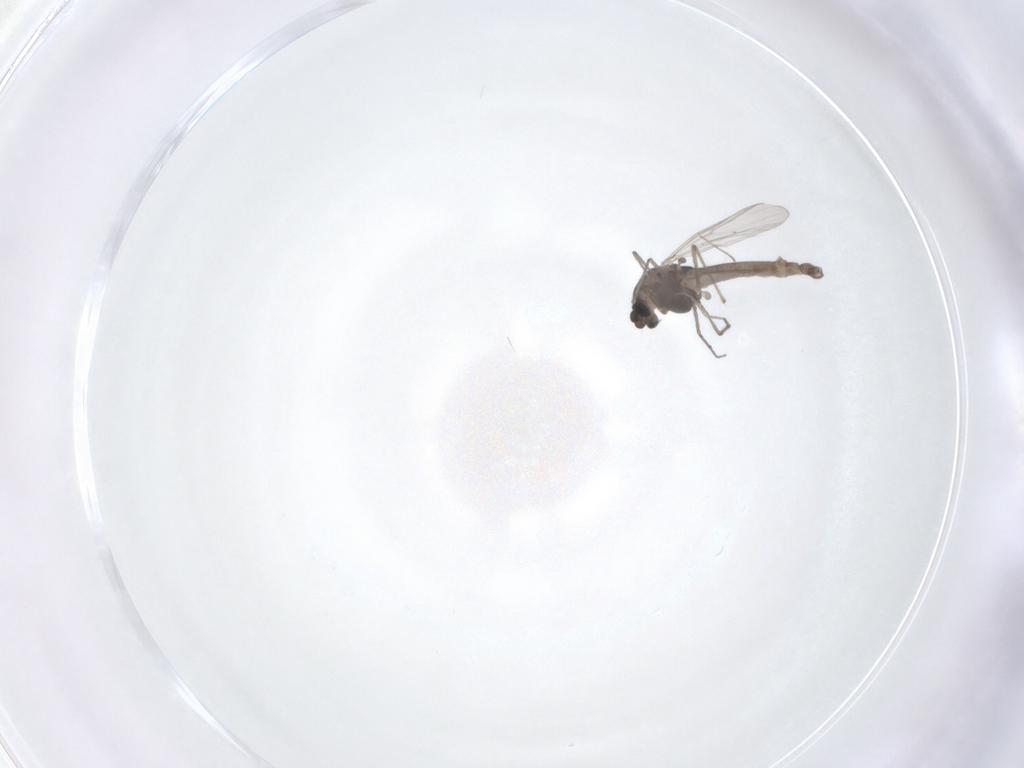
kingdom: Animalia
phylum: Arthropoda
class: Insecta
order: Diptera
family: Chironomidae
